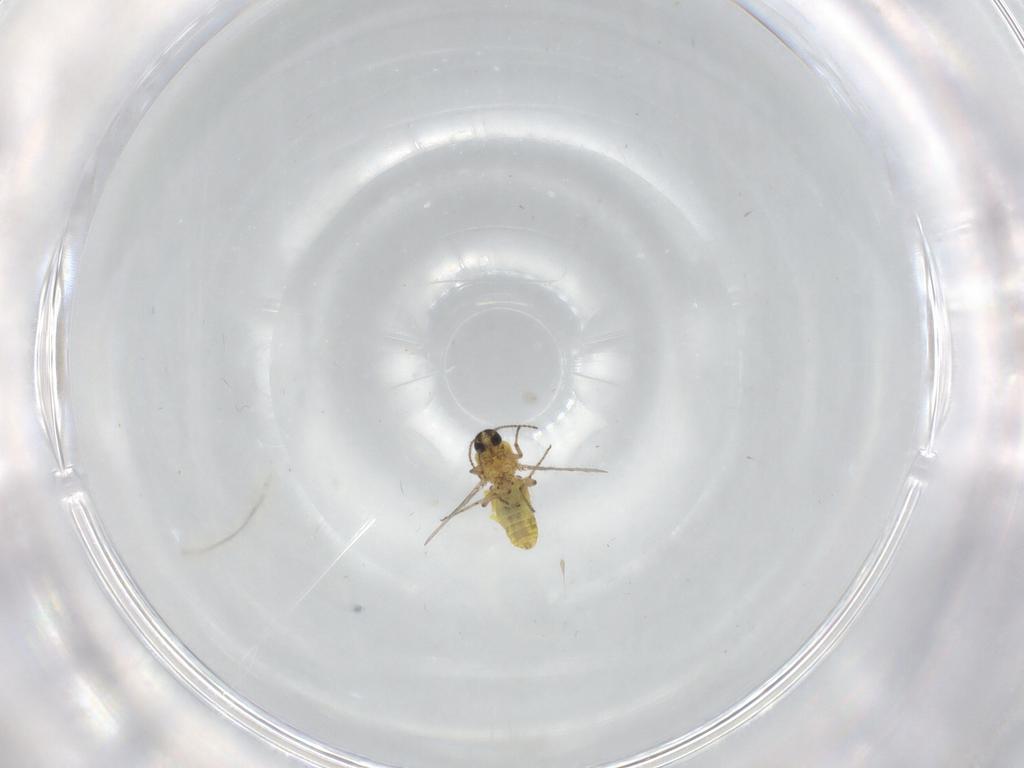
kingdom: Animalia
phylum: Arthropoda
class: Insecta
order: Diptera
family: Ceratopogonidae
